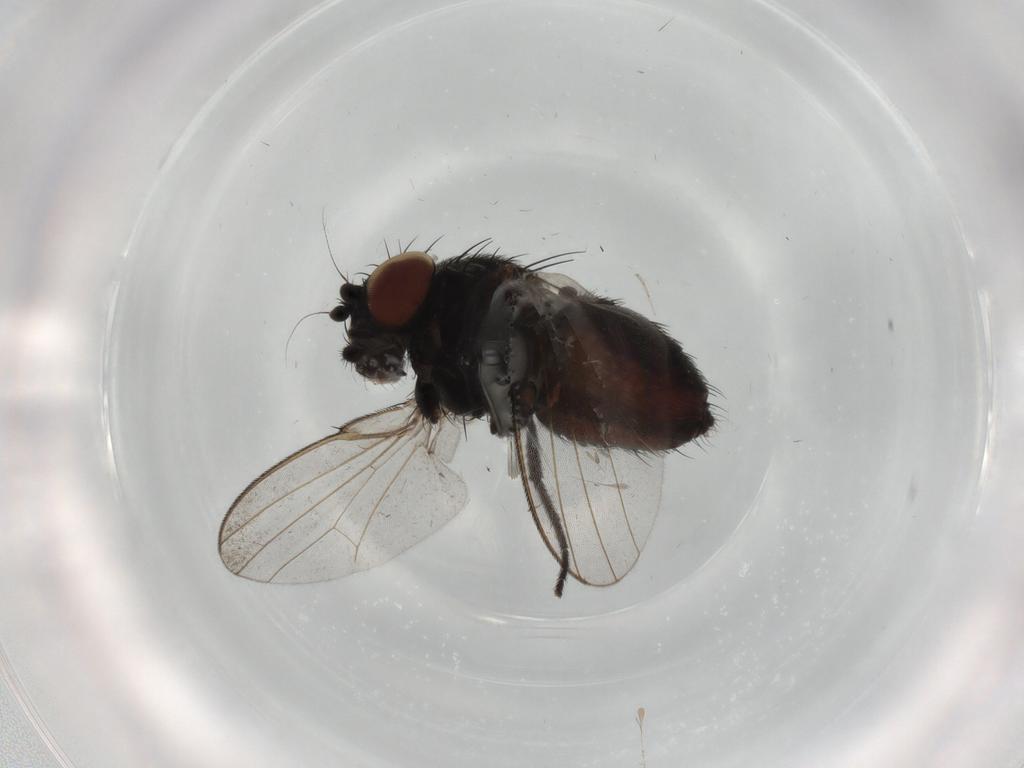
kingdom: Animalia
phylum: Arthropoda
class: Insecta
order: Diptera
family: Milichiidae
